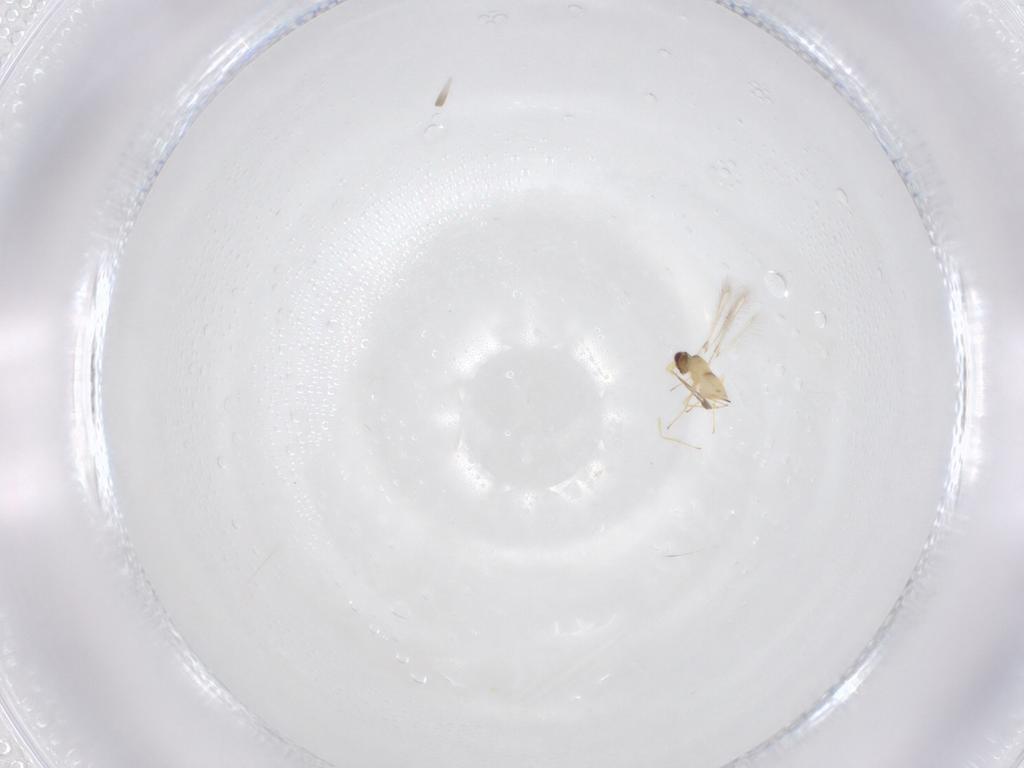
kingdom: Animalia
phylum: Arthropoda
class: Insecta
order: Hymenoptera
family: Mymaridae
